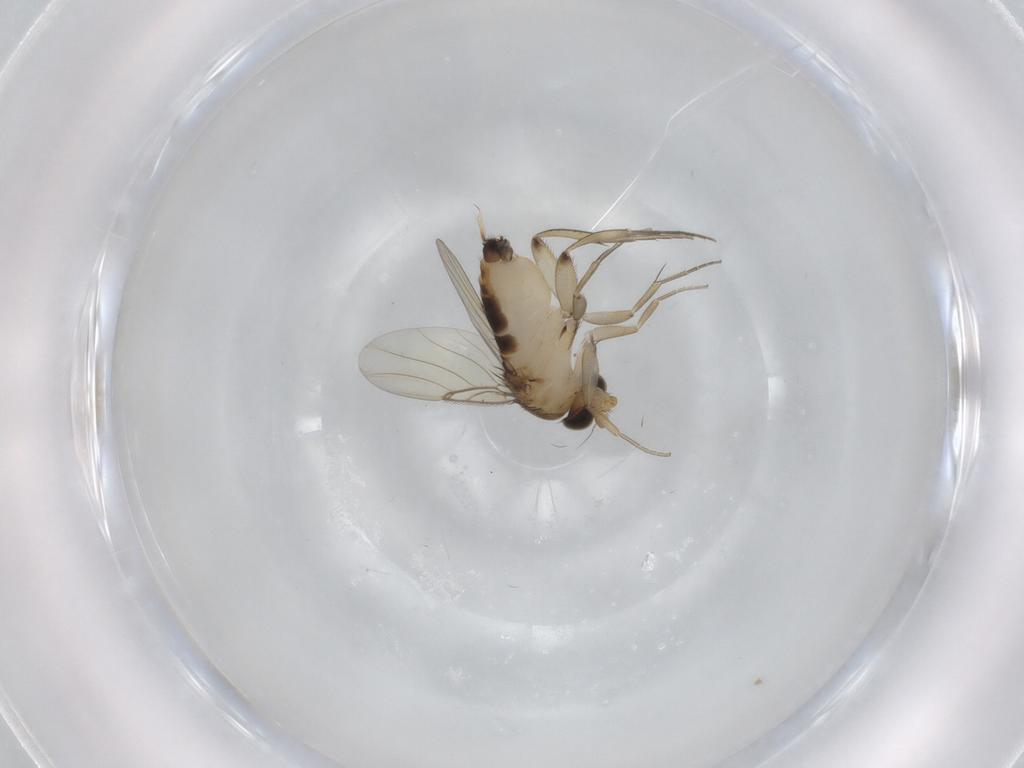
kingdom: Animalia
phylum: Arthropoda
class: Insecta
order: Diptera
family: Phoridae
